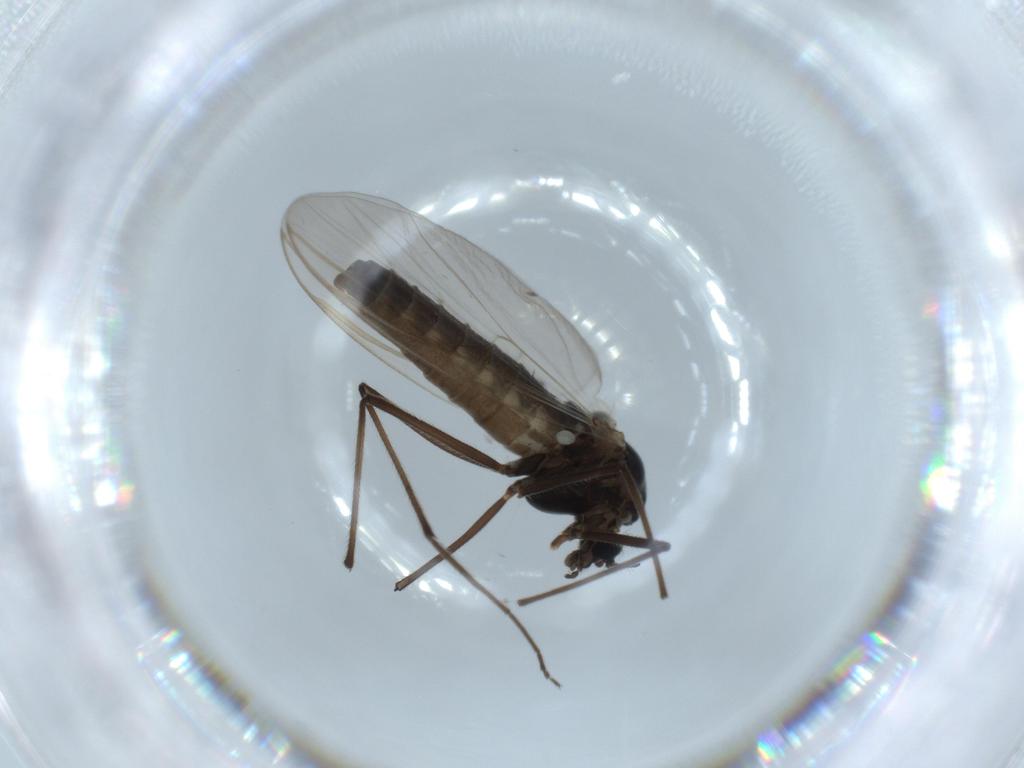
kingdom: Animalia
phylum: Arthropoda
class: Insecta
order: Diptera
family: Chironomidae
